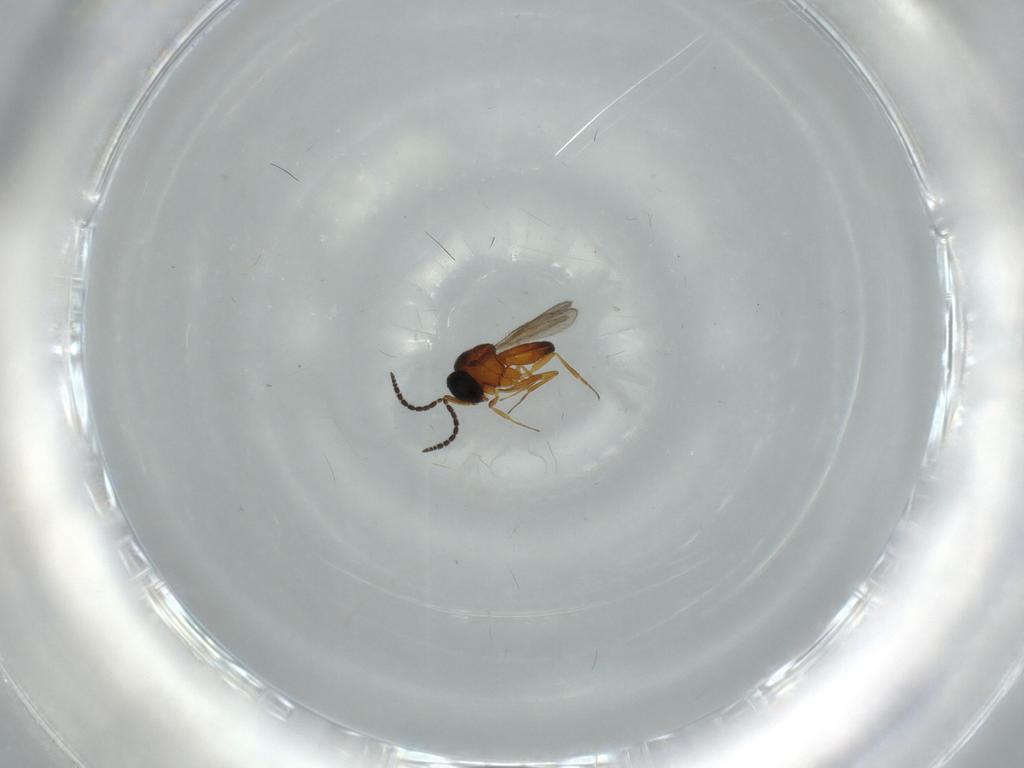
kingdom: Animalia
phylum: Arthropoda
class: Insecta
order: Hymenoptera
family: Scelionidae
